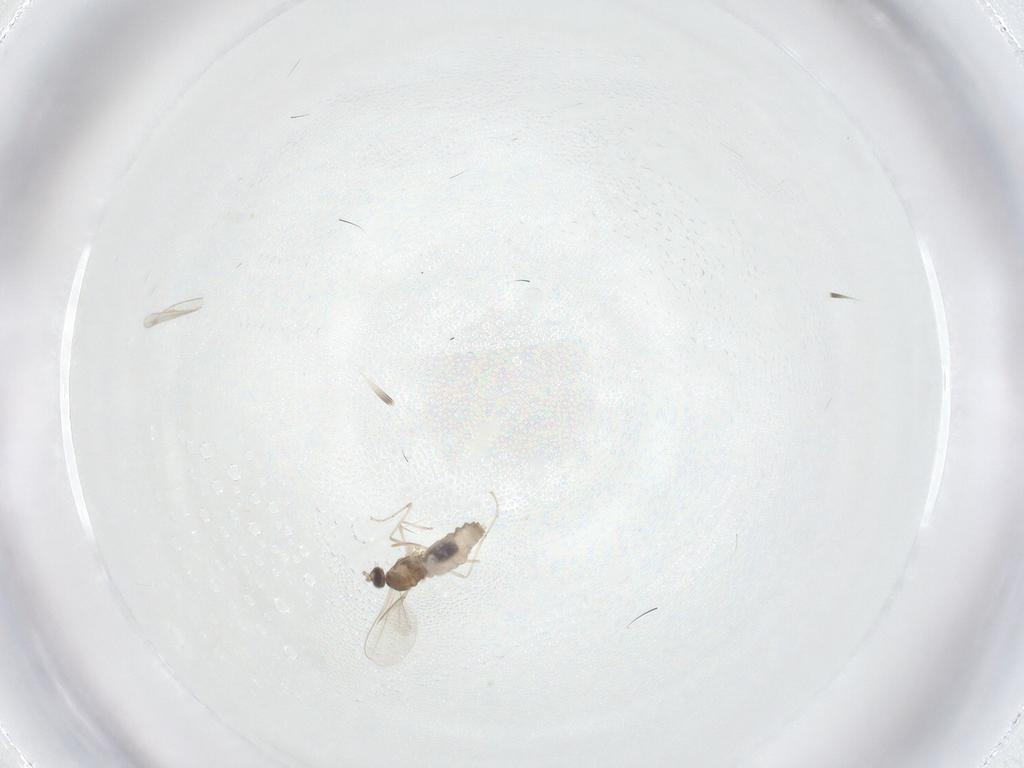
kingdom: Animalia
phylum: Arthropoda
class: Insecta
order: Diptera
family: Cecidomyiidae
